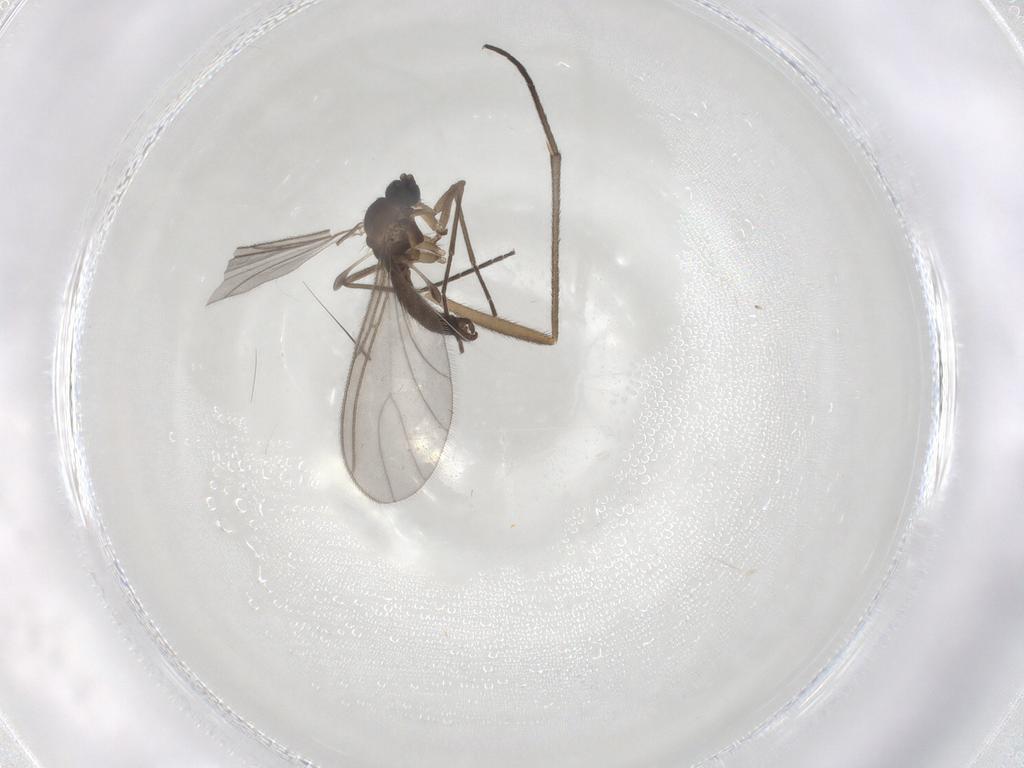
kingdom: Animalia
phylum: Arthropoda
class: Insecta
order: Diptera
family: Sciaridae
